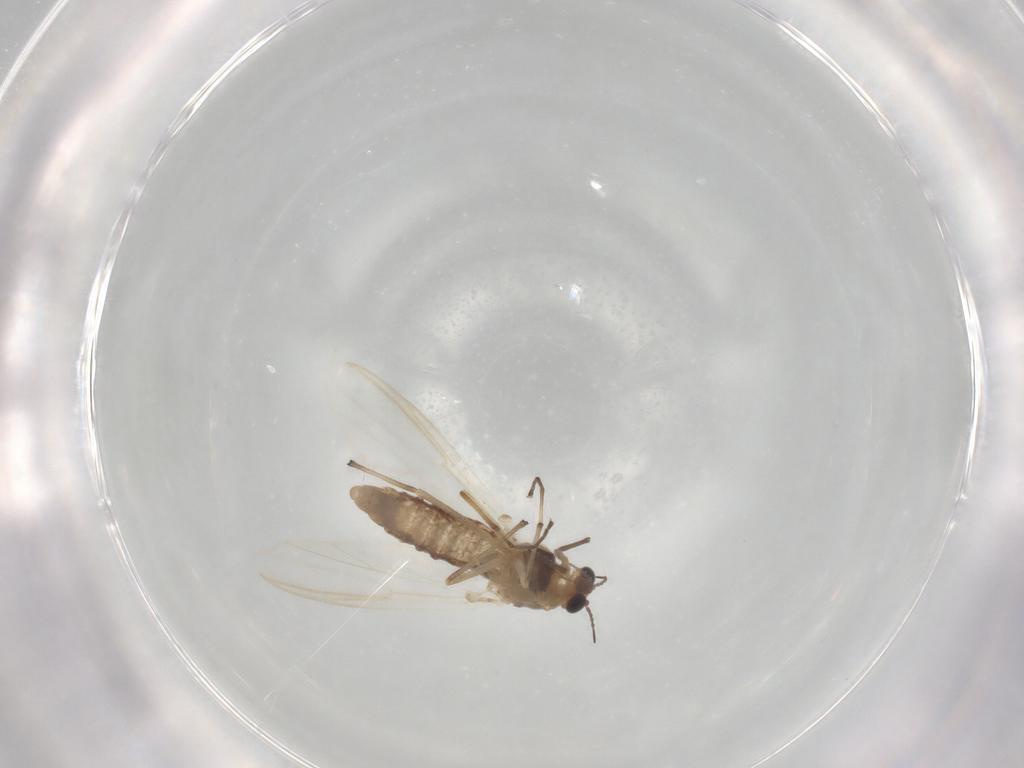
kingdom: Animalia
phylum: Arthropoda
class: Insecta
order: Diptera
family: Chironomidae
